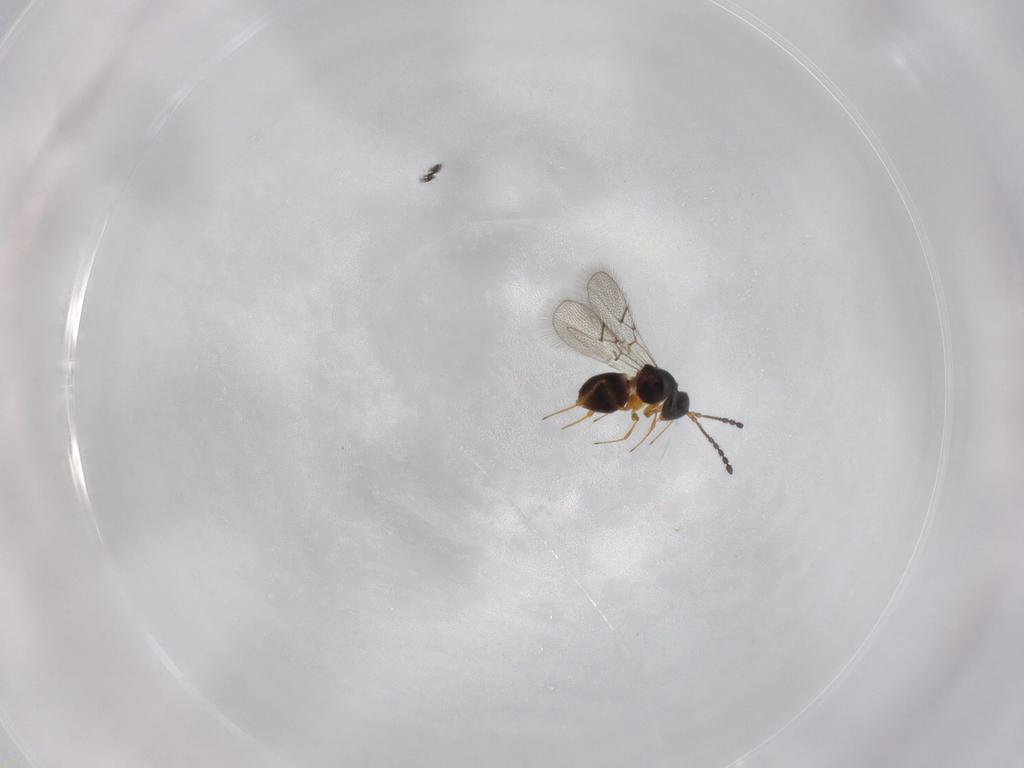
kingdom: Animalia
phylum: Arthropoda
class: Insecta
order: Hymenoptera
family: Figitidae
